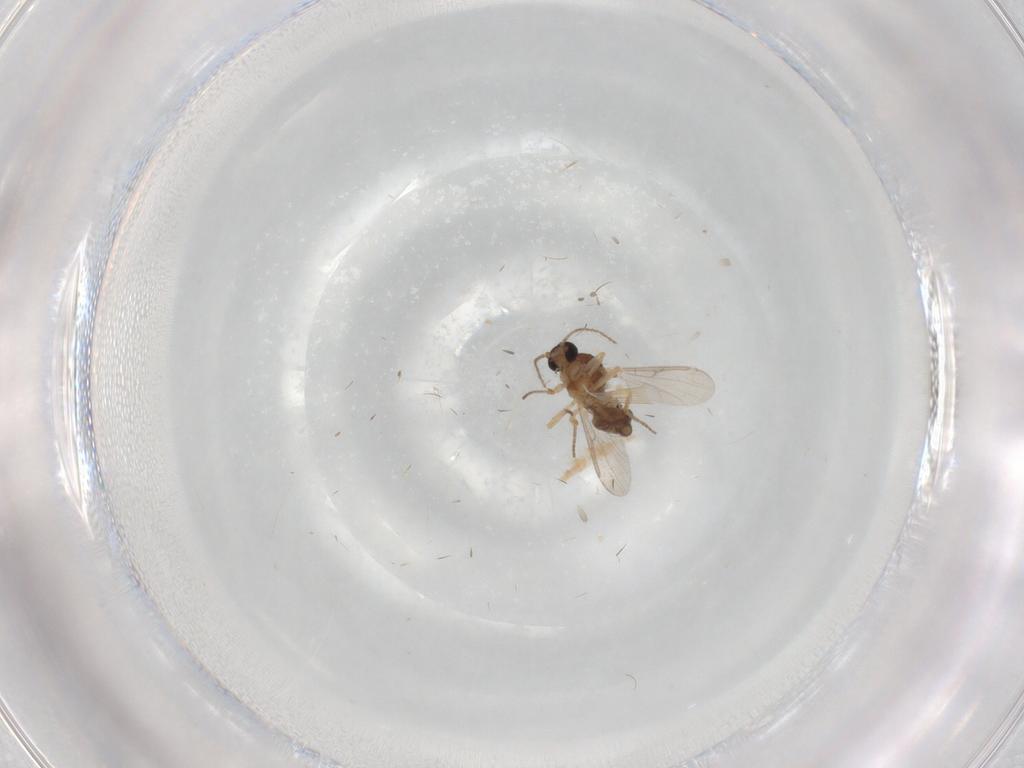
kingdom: Animalia
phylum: Arthropoda
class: Insecta
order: Diptera
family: Ceratopogonidae
